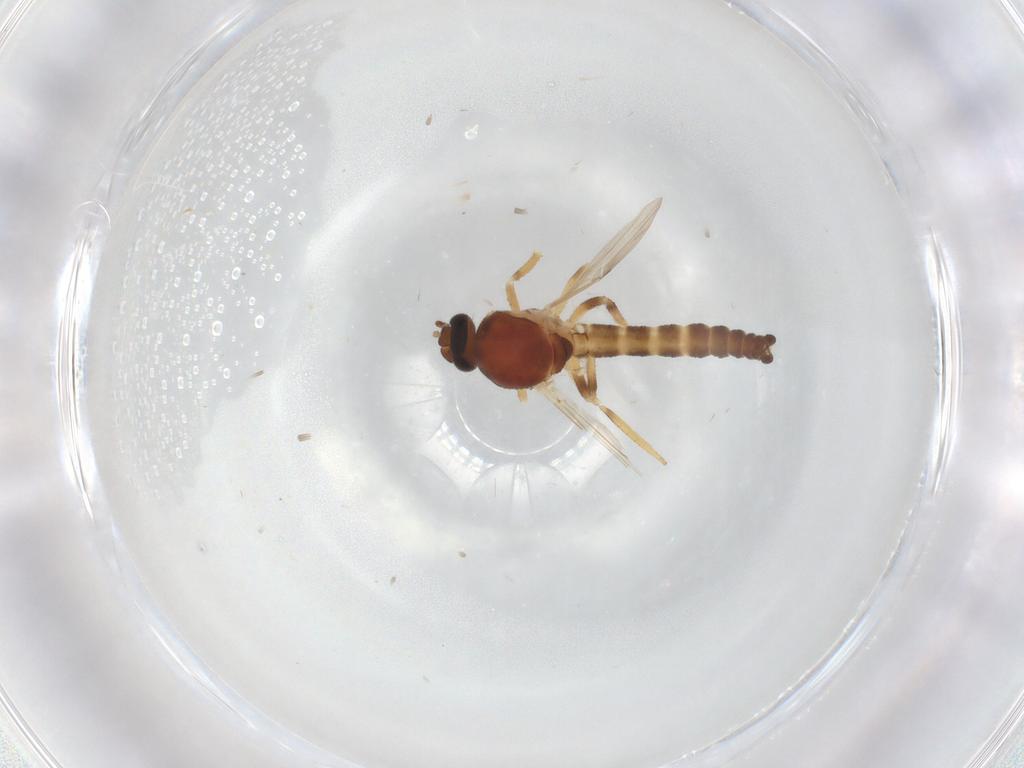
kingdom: Animalia
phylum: Arthropoda
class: Insecta
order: Diptera
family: Ceratopogonidae
